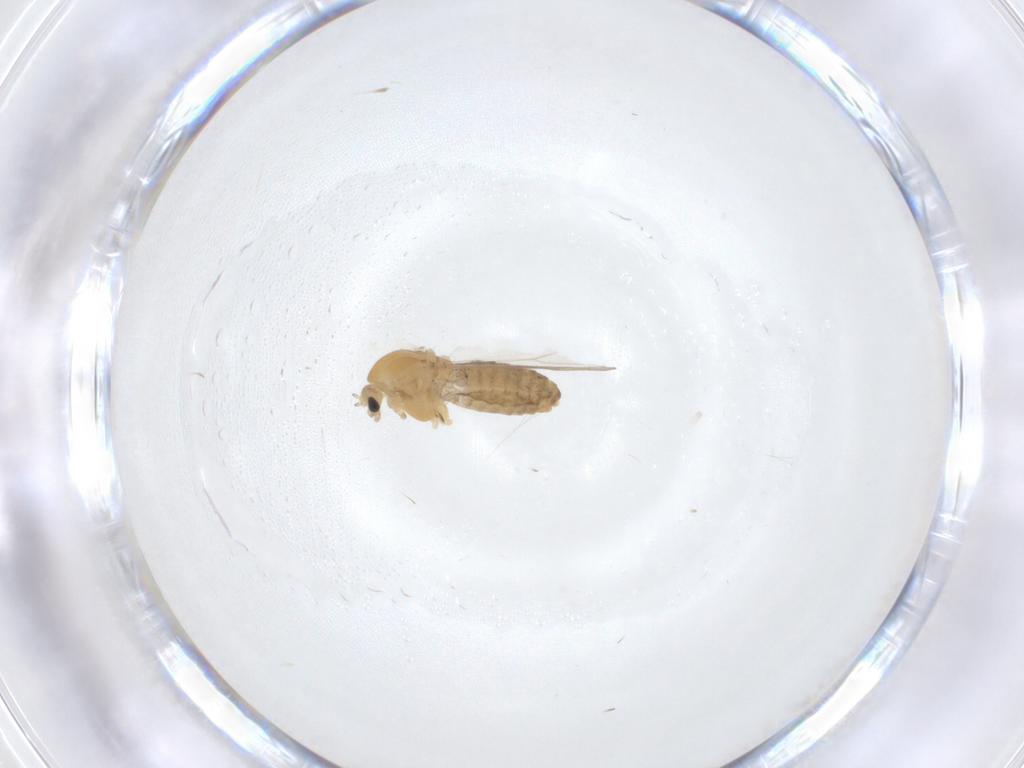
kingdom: Animalia
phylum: Arthropoda
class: Insecta
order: Diptera
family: Chironomidae
